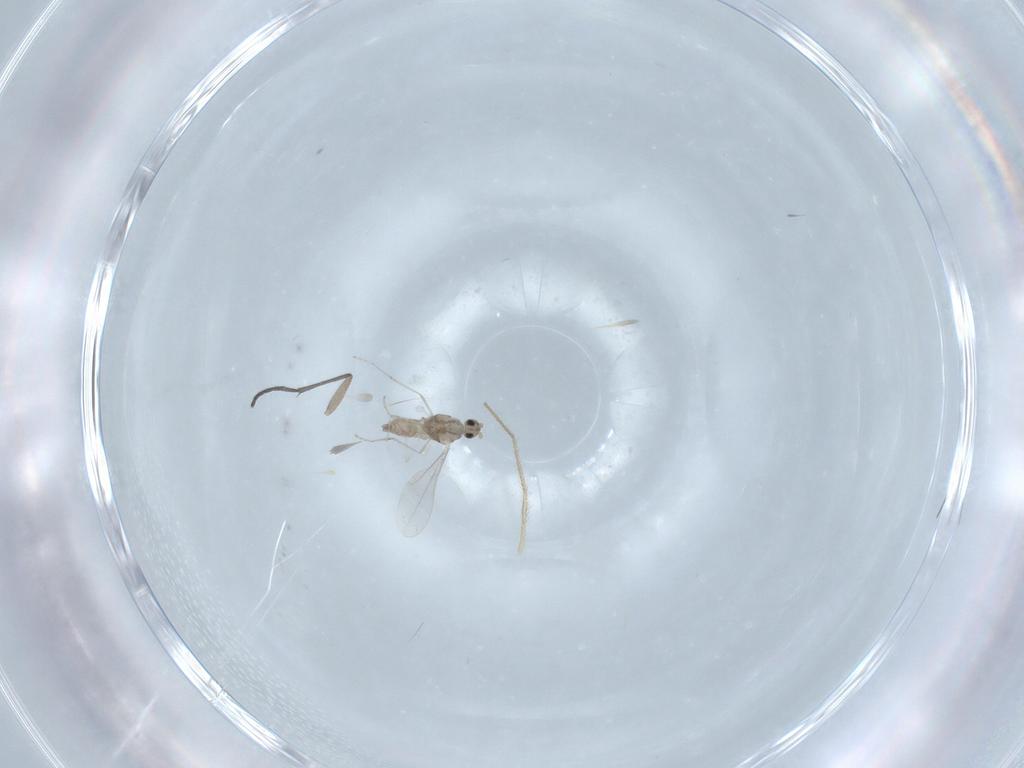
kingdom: Animalia
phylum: Arthropoda
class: Insecta
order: Diptera
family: Cecidomyiidae
